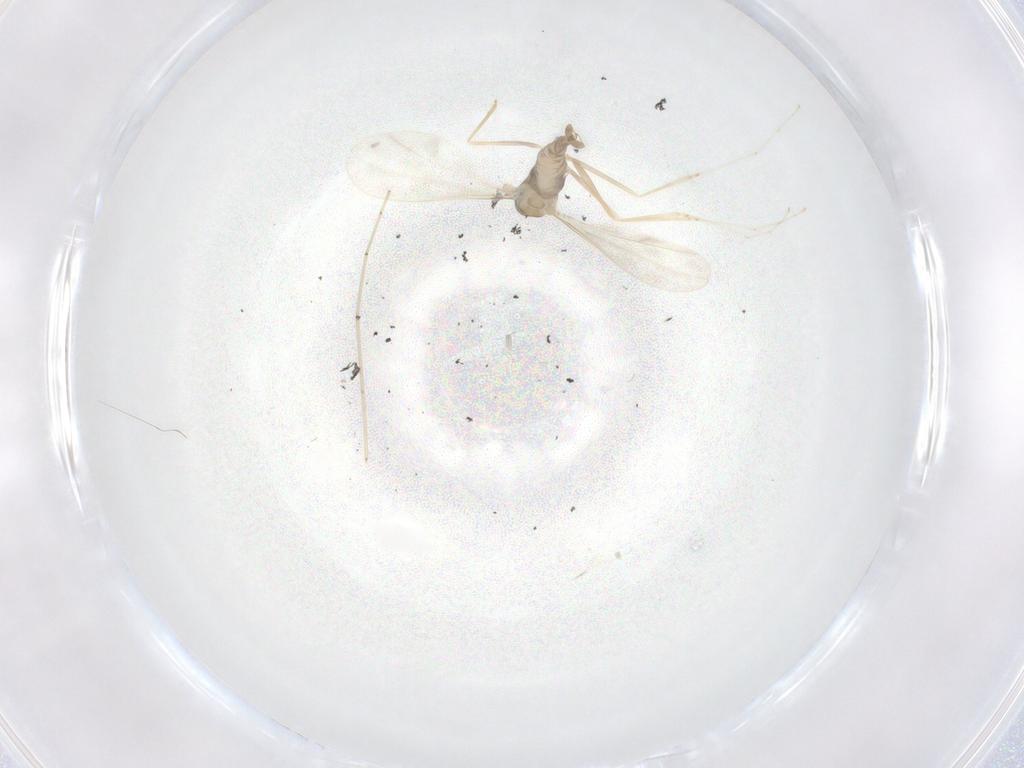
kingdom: Animalia
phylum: Arthropoda
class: Insecta
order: Diptera
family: Cecidomyiidae
